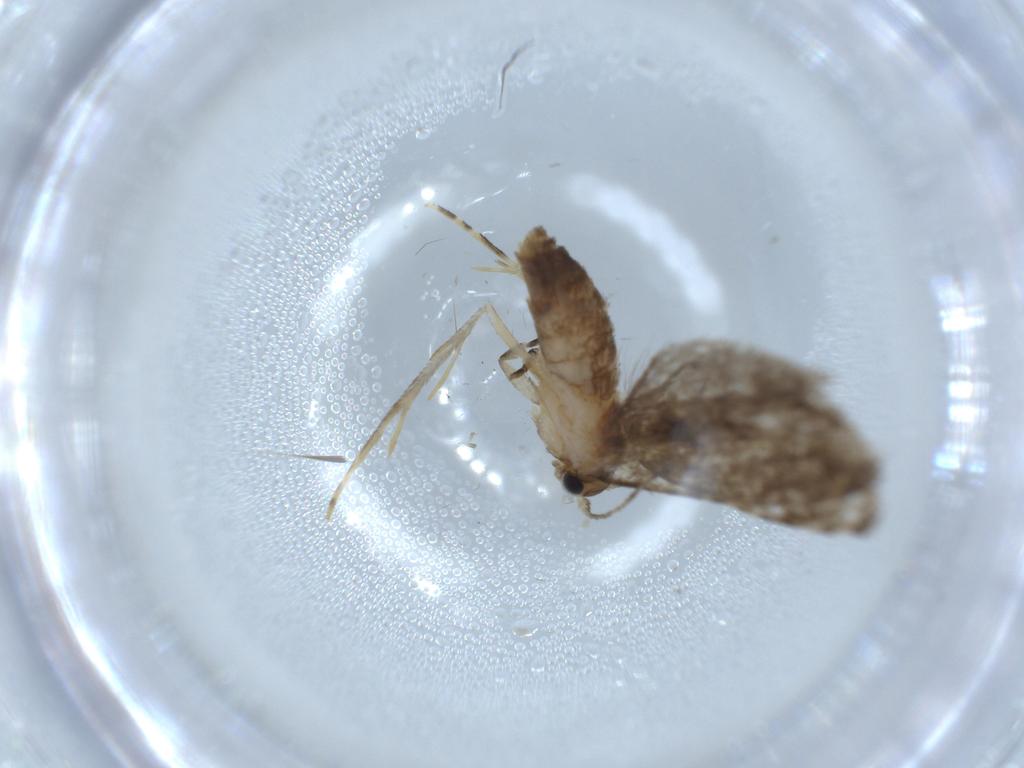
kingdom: Animalia
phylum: Arthropoda
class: Insecta
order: Lepidoptera
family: Tineidae
